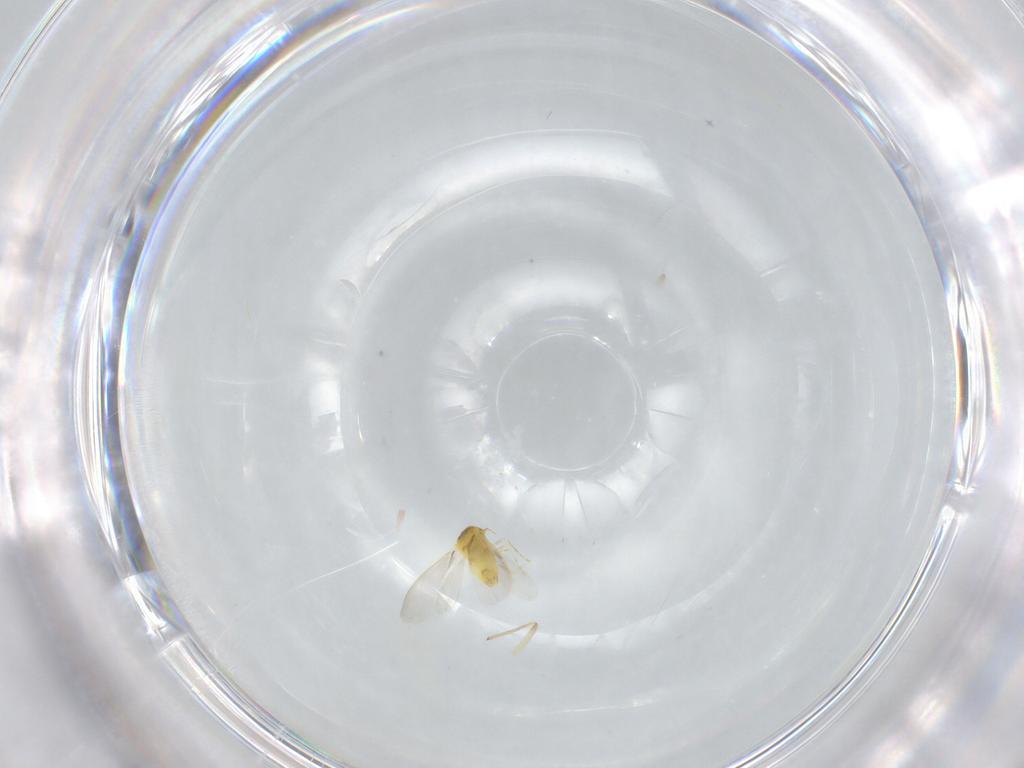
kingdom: Animalia
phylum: Arthropoda
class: Insecta
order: Hemiptera
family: Aleyrodidae
